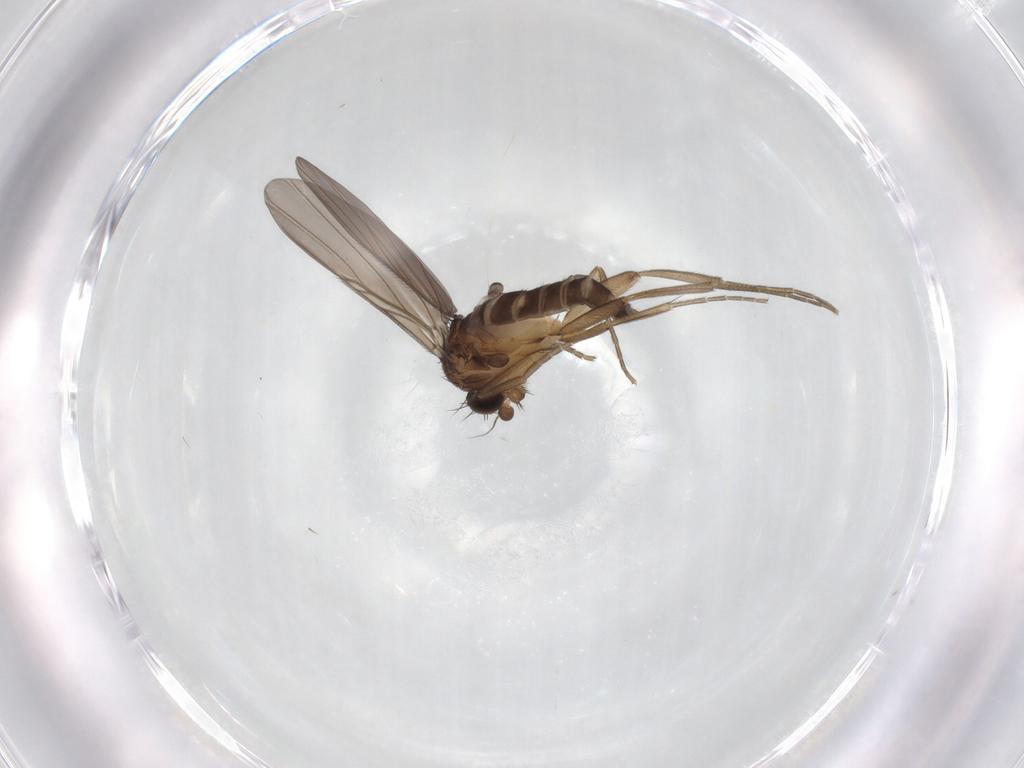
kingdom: Animalia
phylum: Arthropoda
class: Insecta
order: Diptera
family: Phoridae
